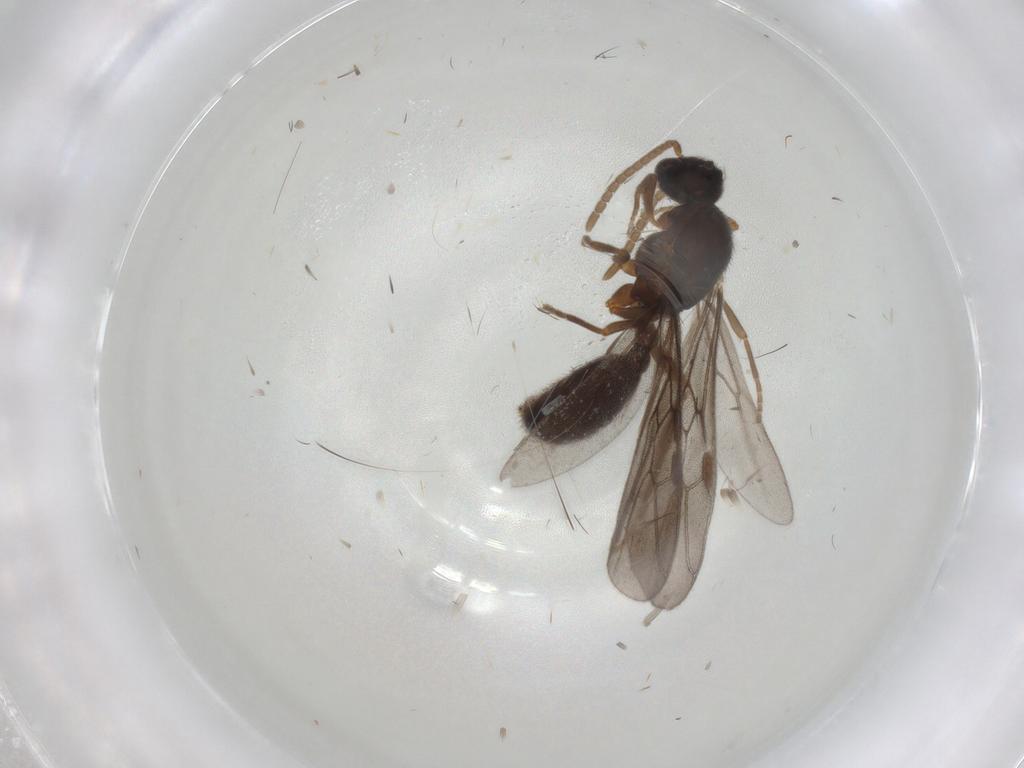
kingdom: Animalia
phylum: Arthropoda
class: Insecta
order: Hymenoptera
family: Formicidae
